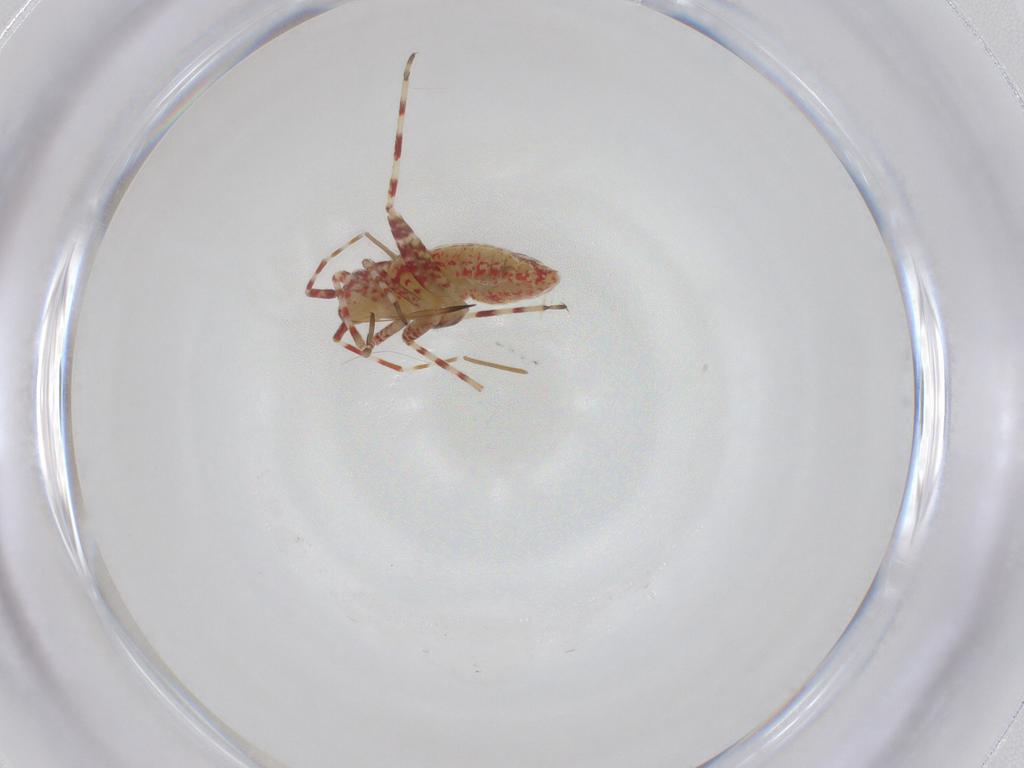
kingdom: Animalia
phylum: Arthropoda
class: Insecta
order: Hemiptera
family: Miridae
